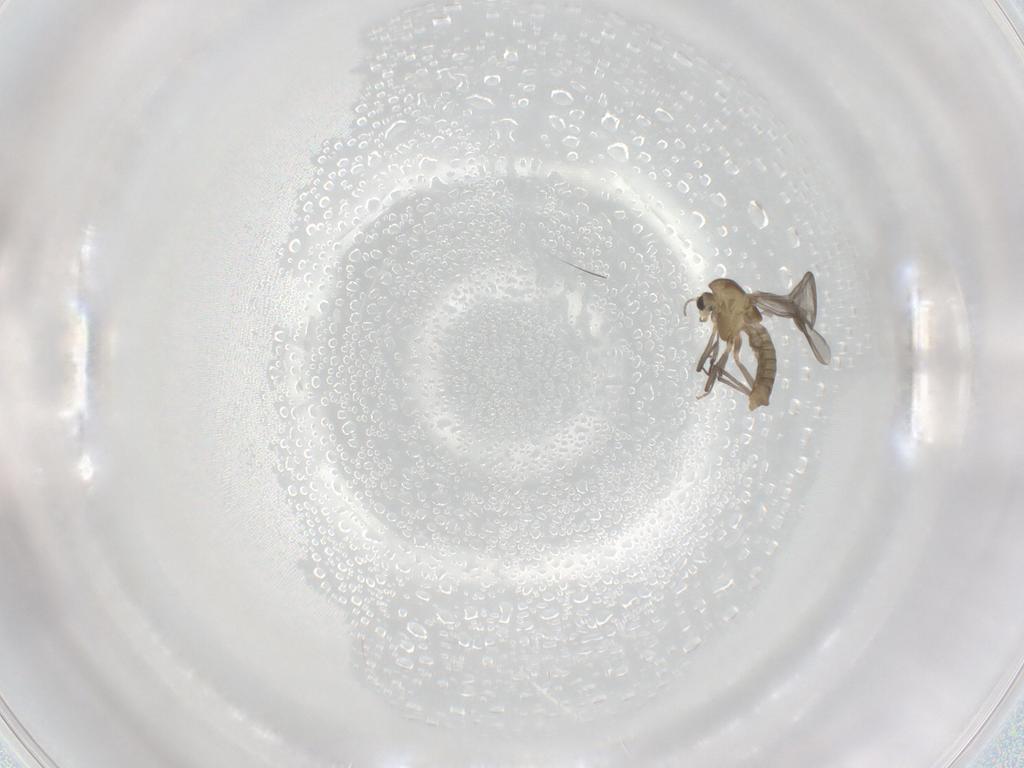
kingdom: Animalia
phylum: Arthropoda
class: Insecta
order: Diptera
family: Chironomidae
